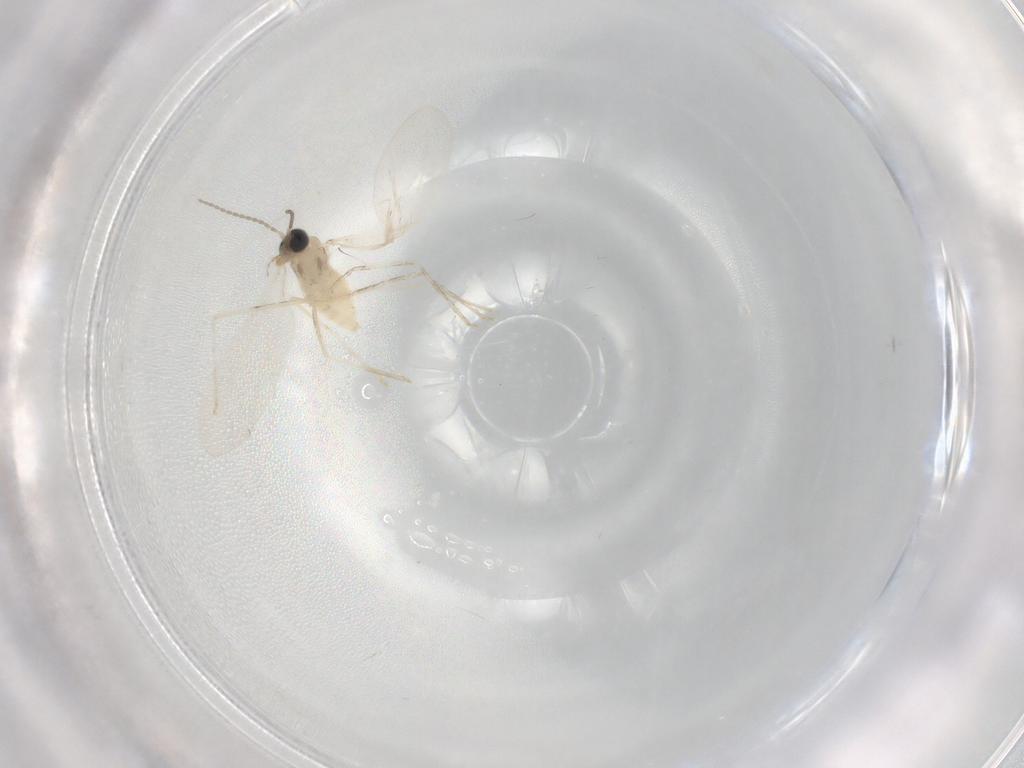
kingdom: Animalia
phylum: Arthropoda
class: Insecta
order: Diptera
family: Cecidomyiidae
